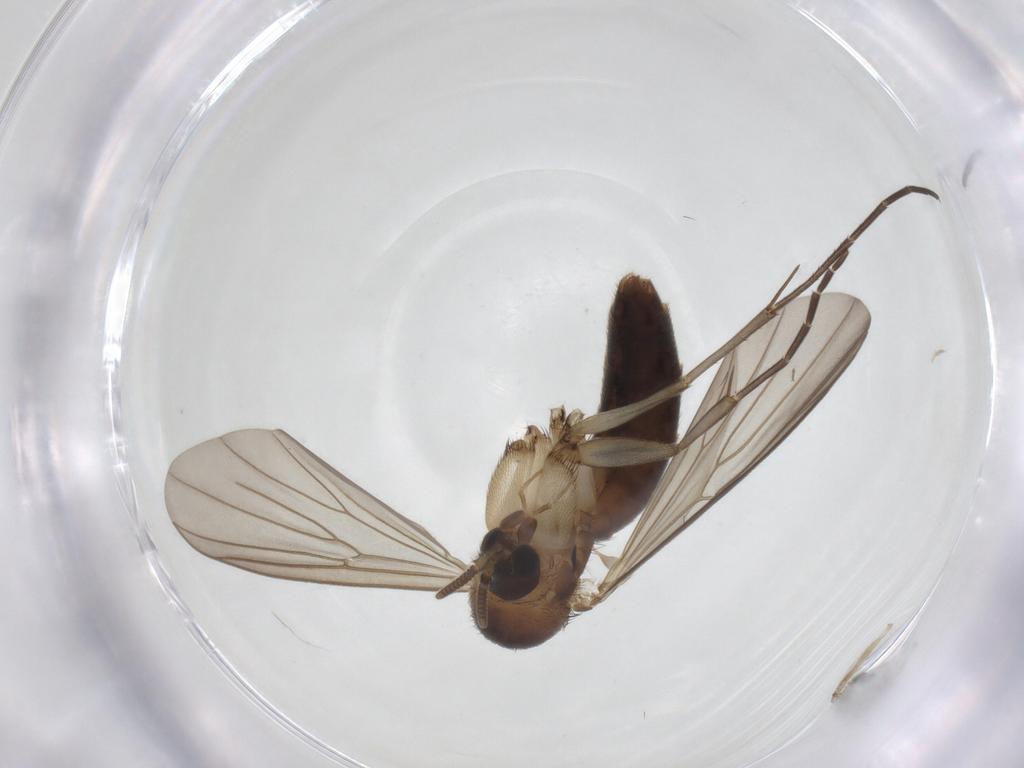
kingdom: Animalia
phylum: Arthropoda
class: Insecta
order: Diptera
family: Mycetophilidae
